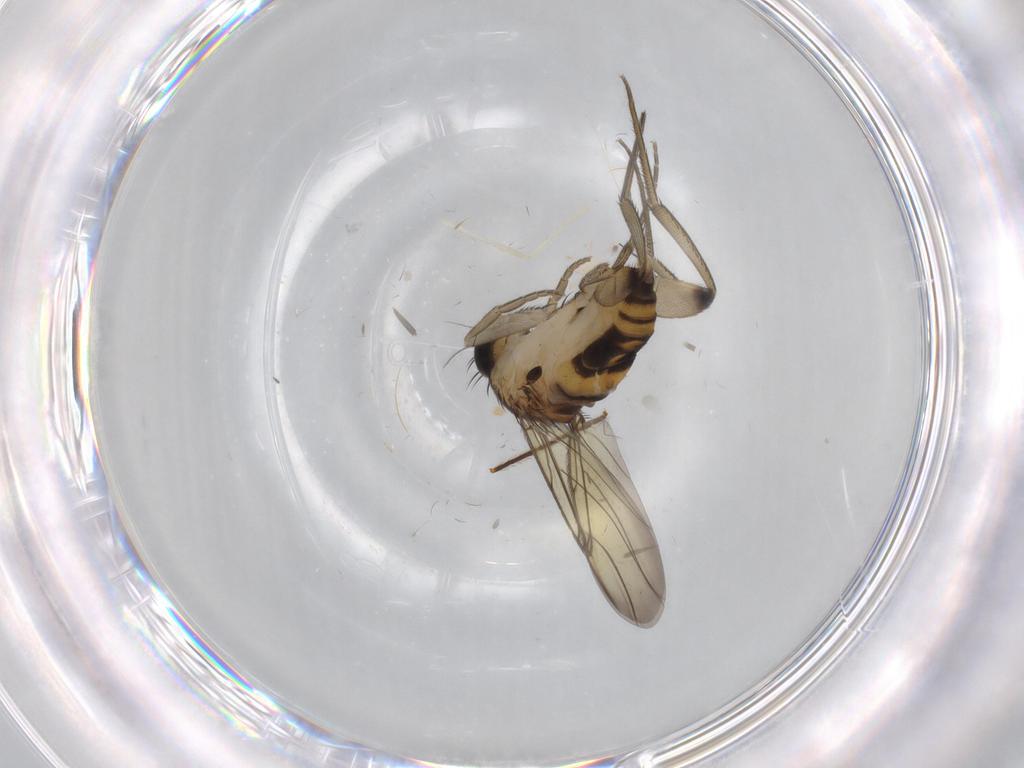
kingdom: Animalia
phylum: Arthropoda
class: Insecta
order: Diptera
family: Phoridae
